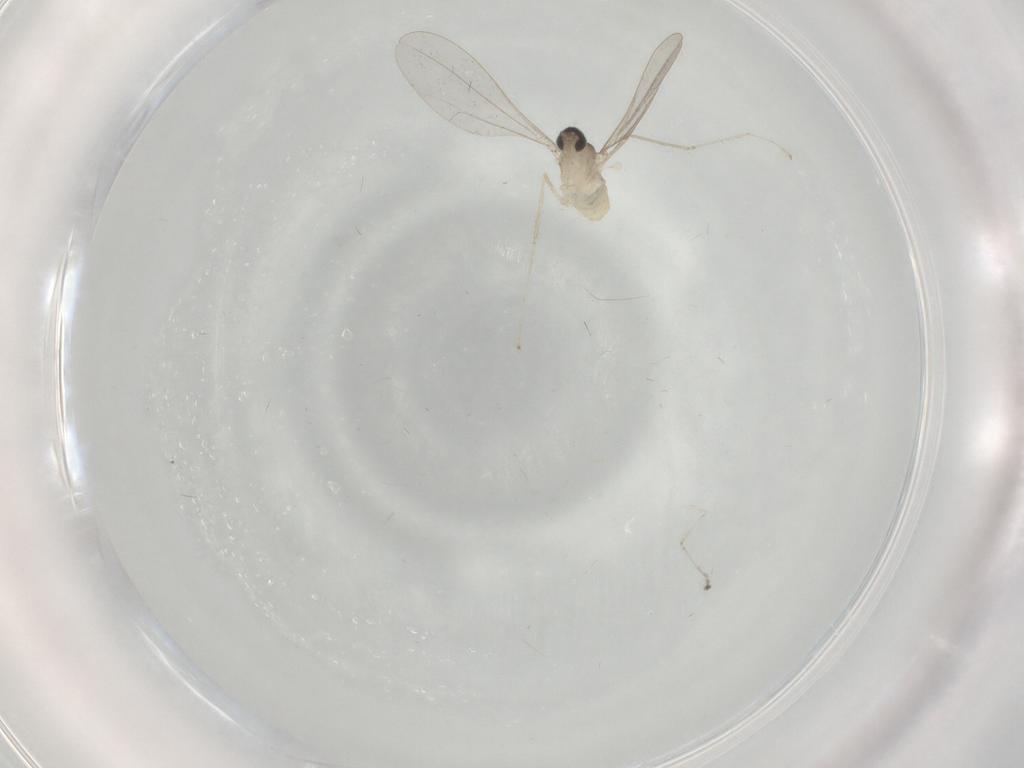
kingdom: Animalia
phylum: Arthropoda
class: Insecta
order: Diptera
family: Cecidomyiidae
